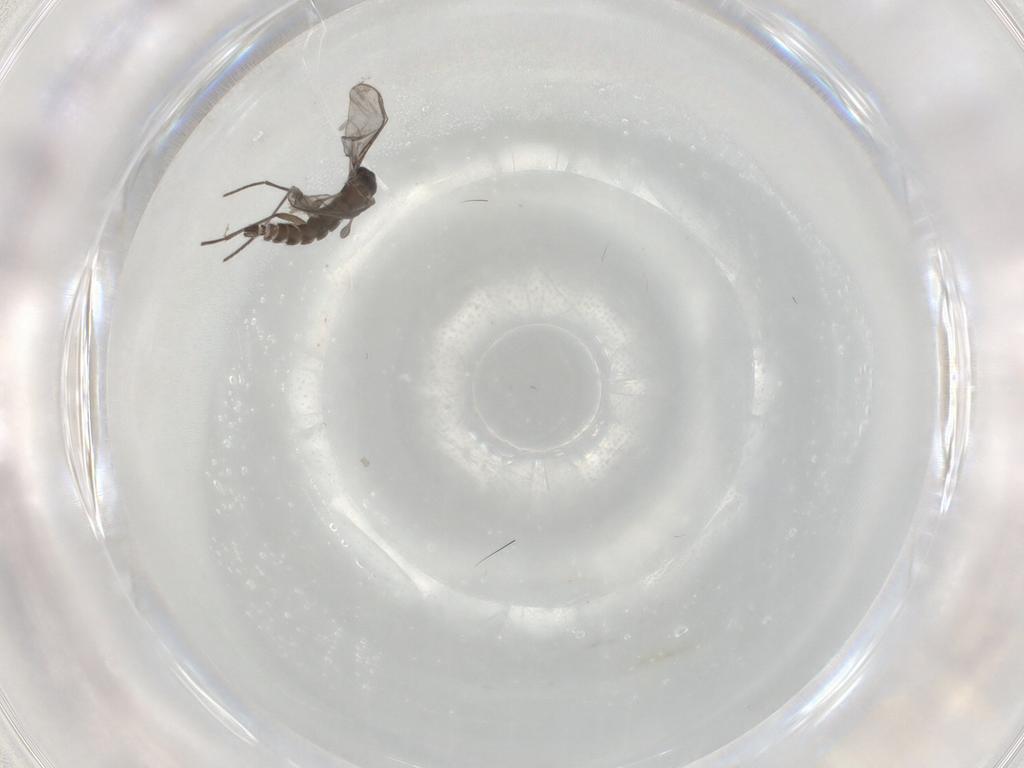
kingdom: Animalia
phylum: Arthropoda
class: Insecta
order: Diptera
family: Sciaridae
